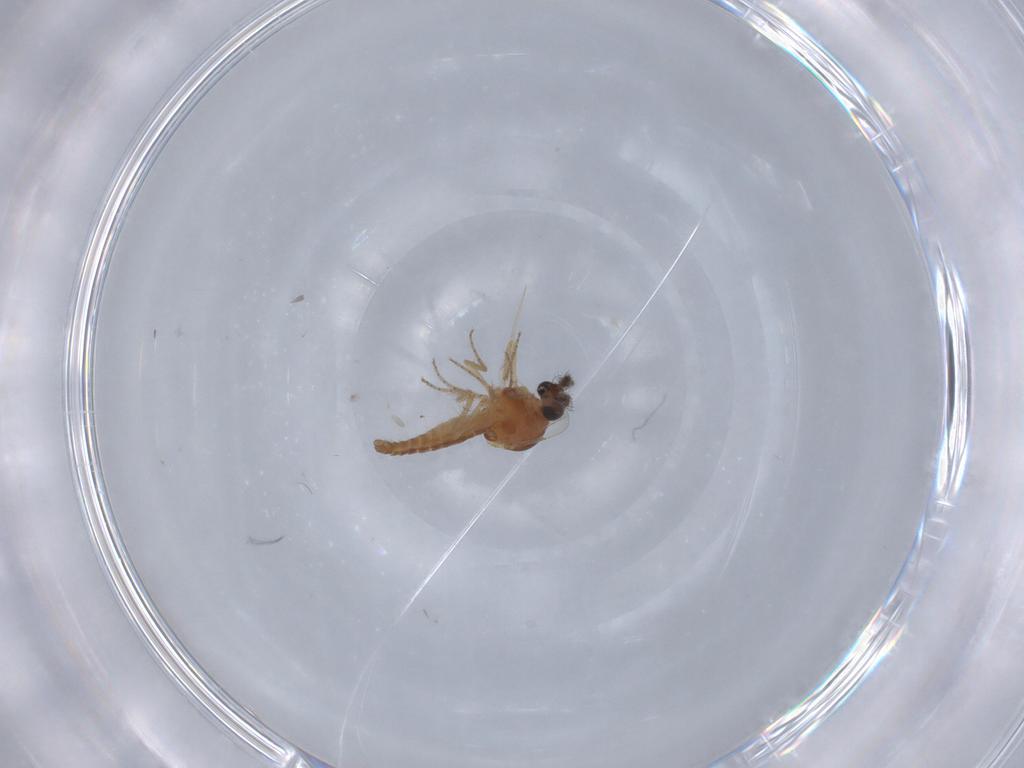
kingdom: Animalia
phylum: Arthropoda
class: Insecta
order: Diptera
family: Ceratopogonidae
